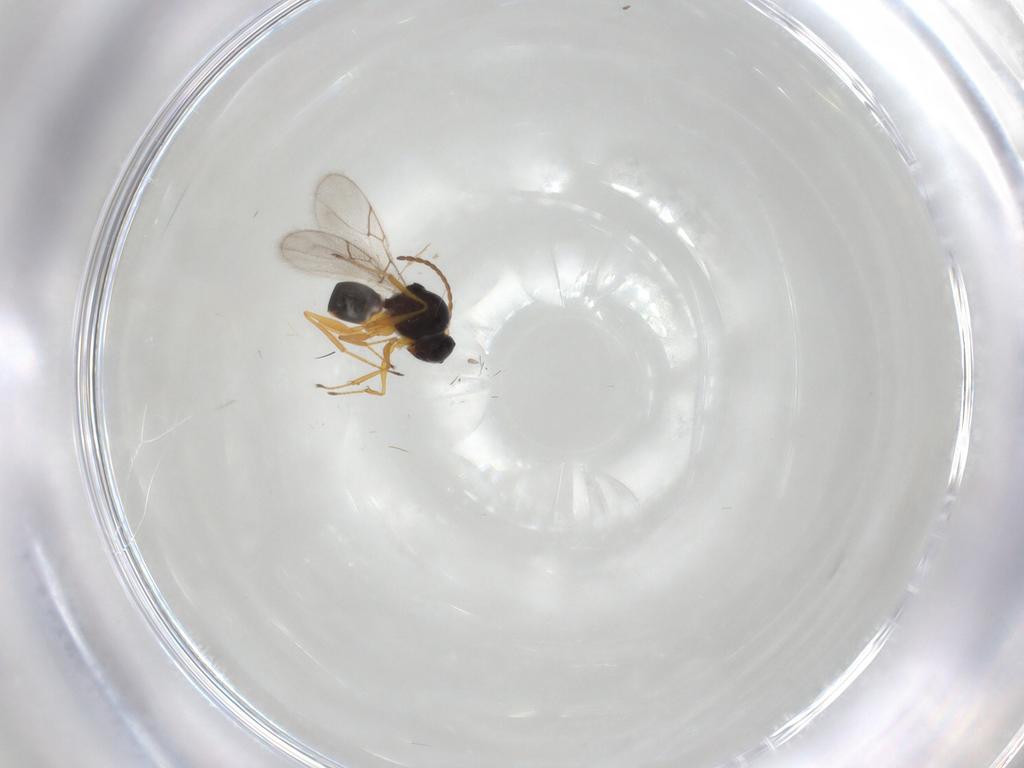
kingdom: Animalia
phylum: Arthropoda
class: Insecta
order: Hymenoptera
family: Figitidae
